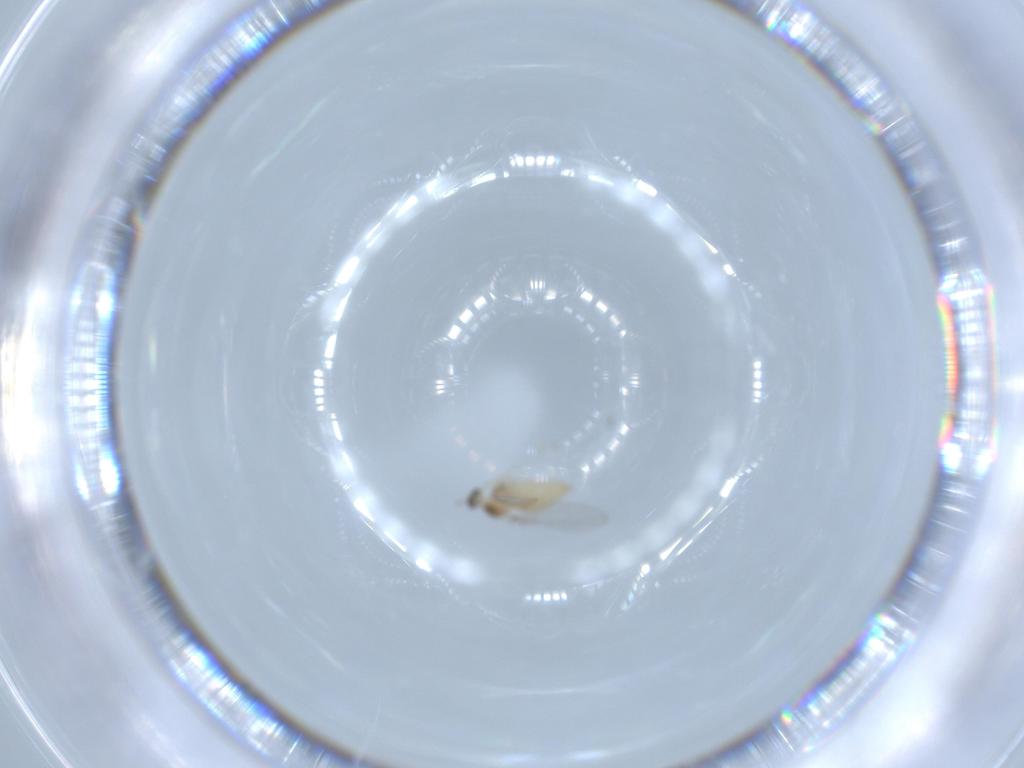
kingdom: Animalia
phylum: Arthropoda
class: Insecta
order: Diptera
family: Cecidomyiidae
